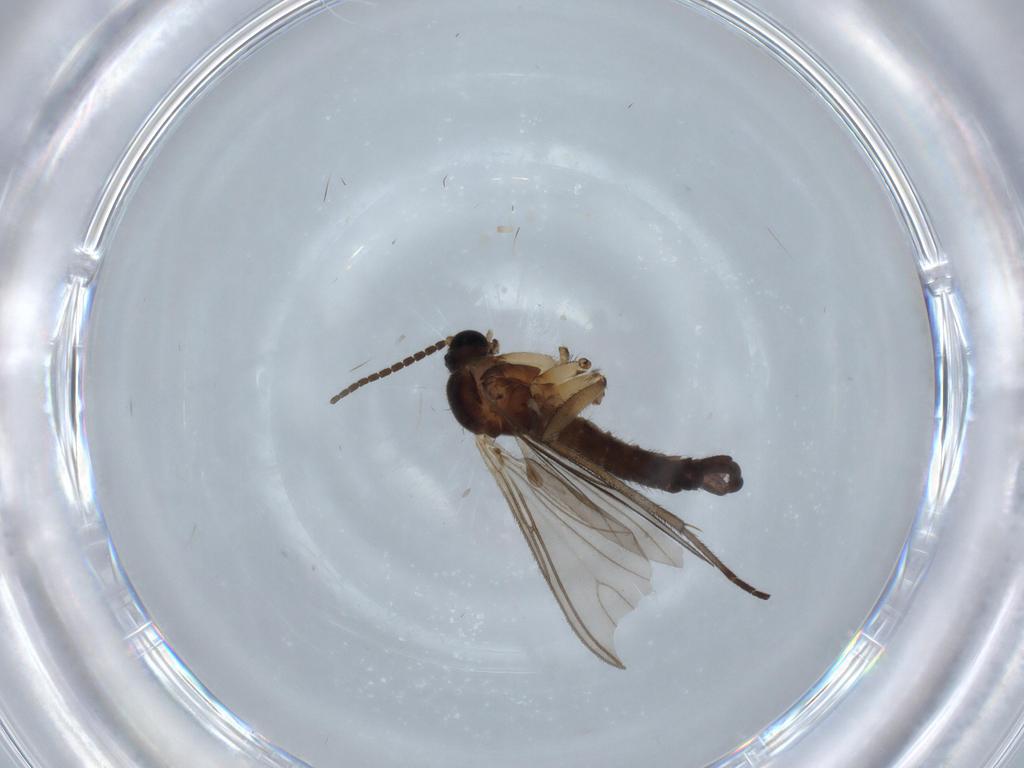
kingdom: Animalia
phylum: Arthropoda
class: Insecta
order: Diptera
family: Sciaridae
